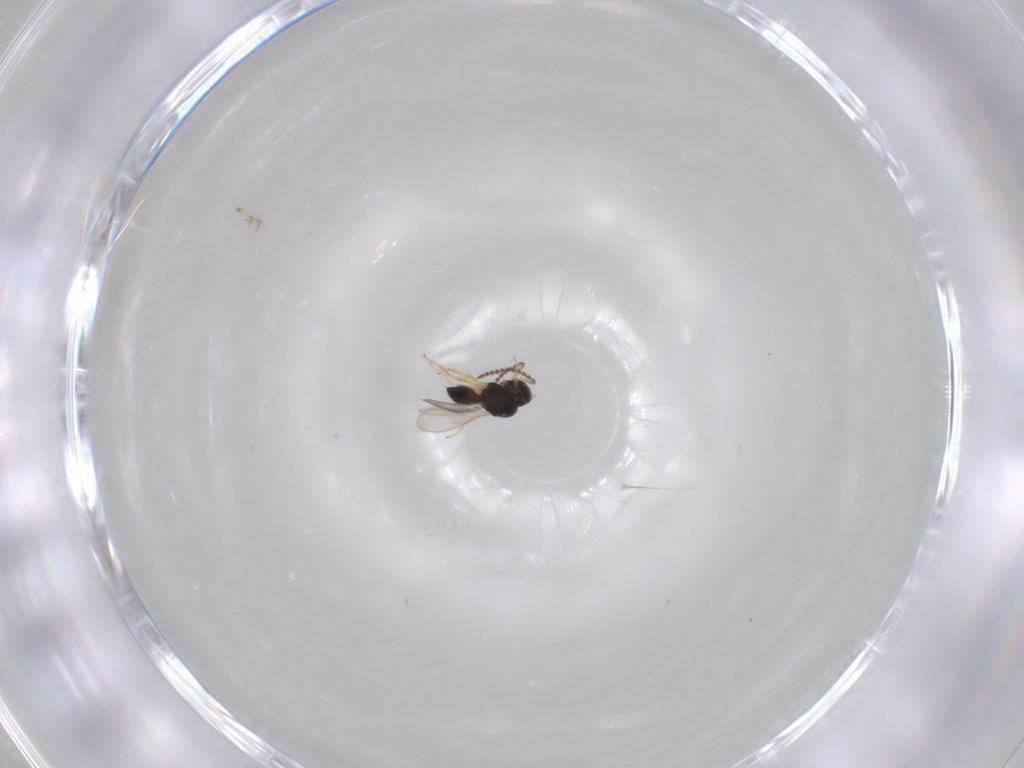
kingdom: Animalia
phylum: Arthropoda
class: Insecta
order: Hymenoptera
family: Scelionidae
